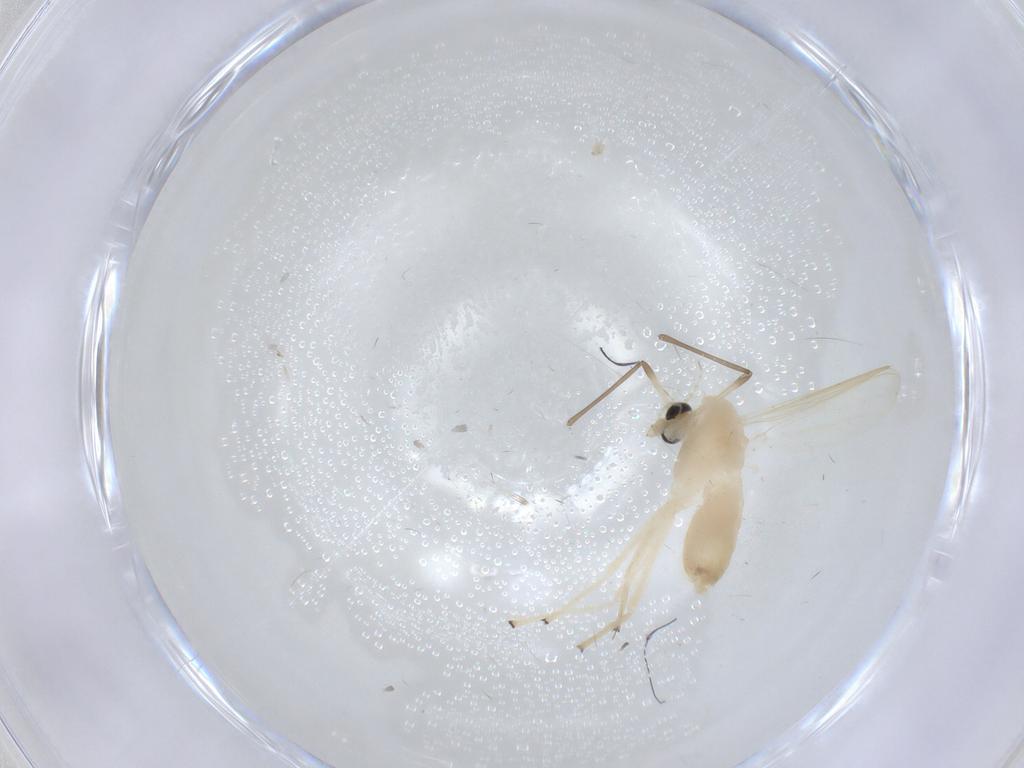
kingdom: Animalia
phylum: Arthropoda
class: Insecta
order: Diptera
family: Chironomidae
